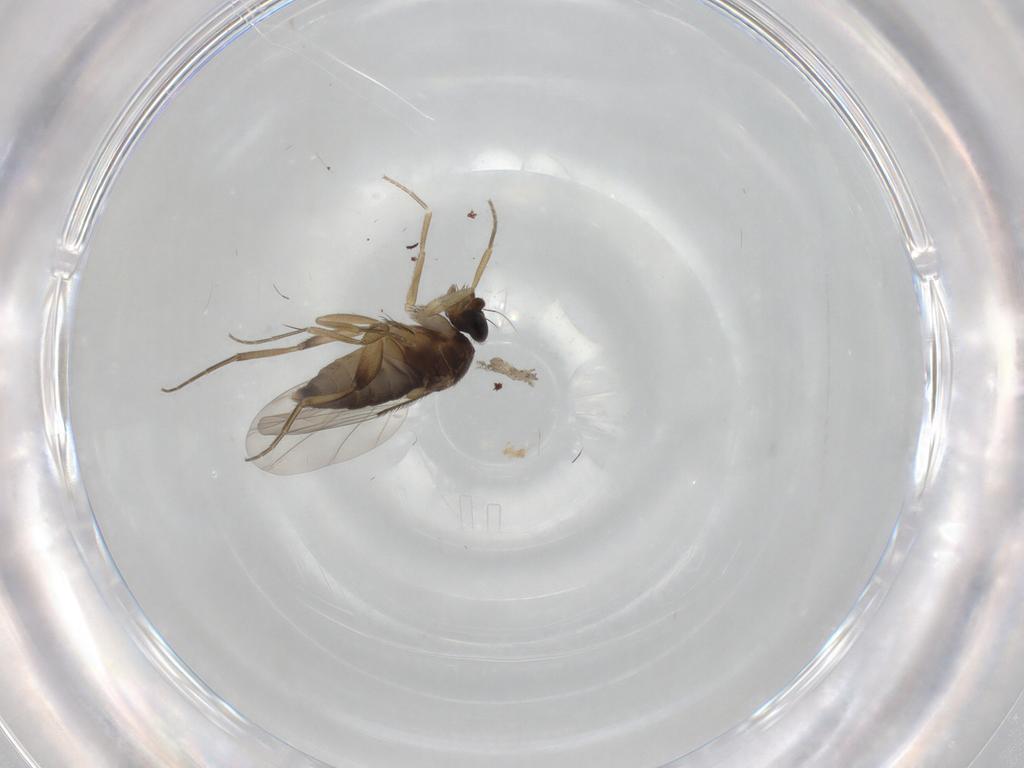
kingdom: Animalia
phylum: Arthropoda
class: Insecta
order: Diptera
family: Phoridae
